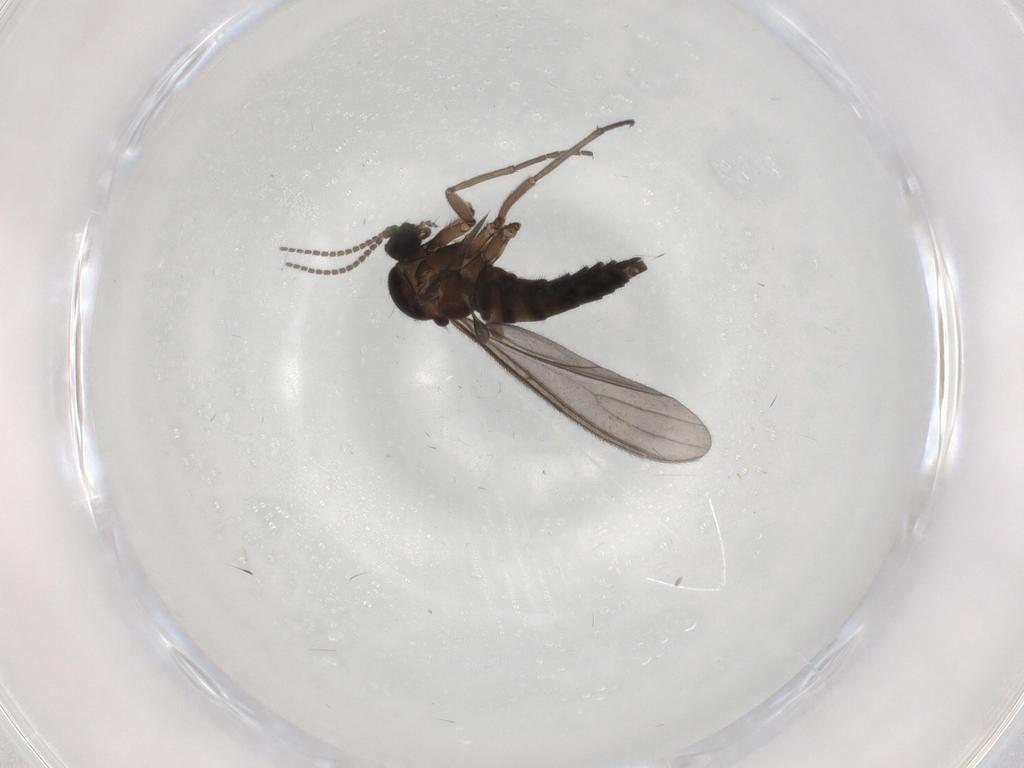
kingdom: Animalia
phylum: Arthropoda
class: Insecta
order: Diptera
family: Sciaridae
